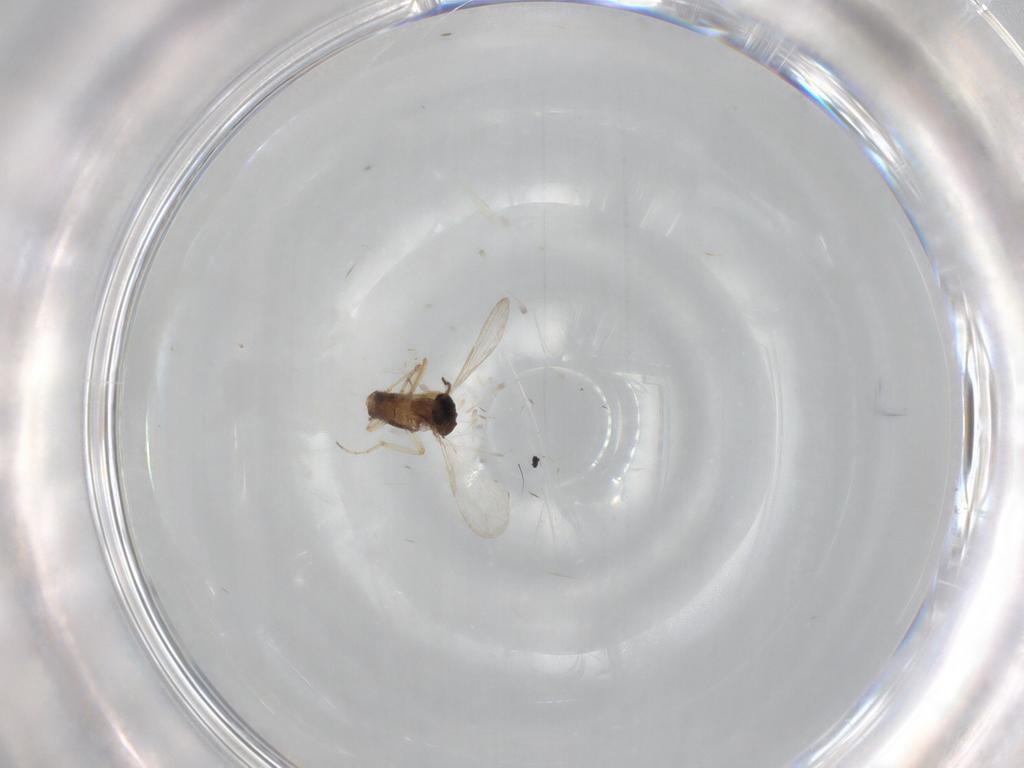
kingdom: Animalia
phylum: Arthropoda
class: Insecta
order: Diptera
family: Ceratopogonidae
